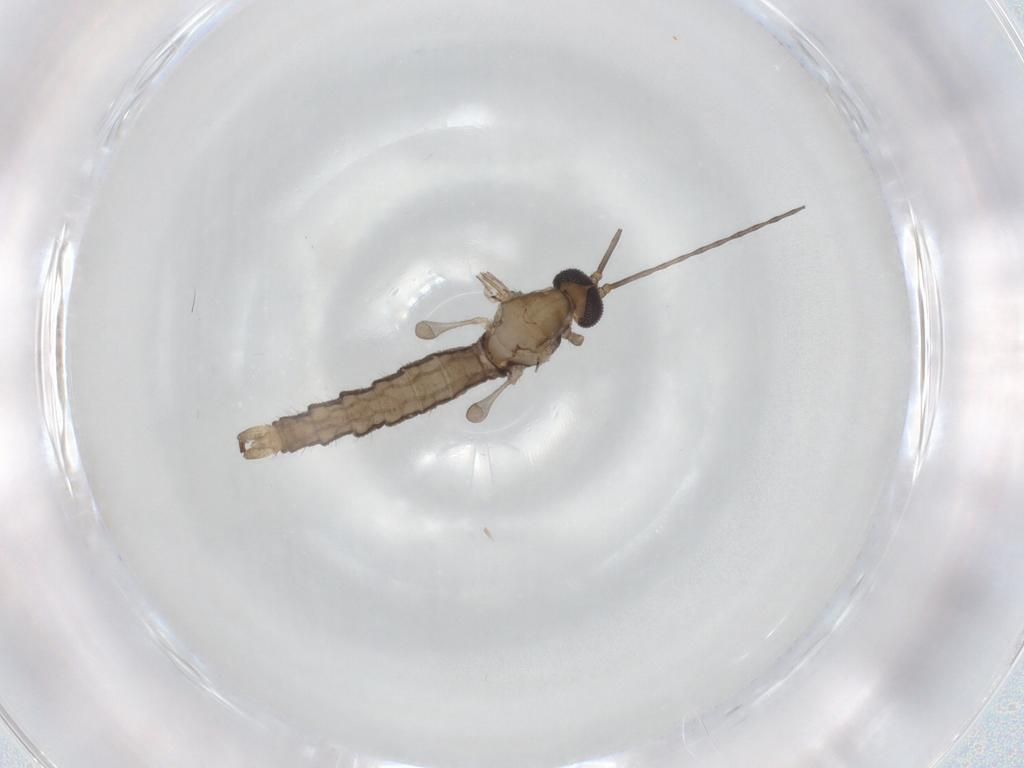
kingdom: Animalia
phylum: Arthropoda
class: Insecta
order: Diptera
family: Limoniidae
